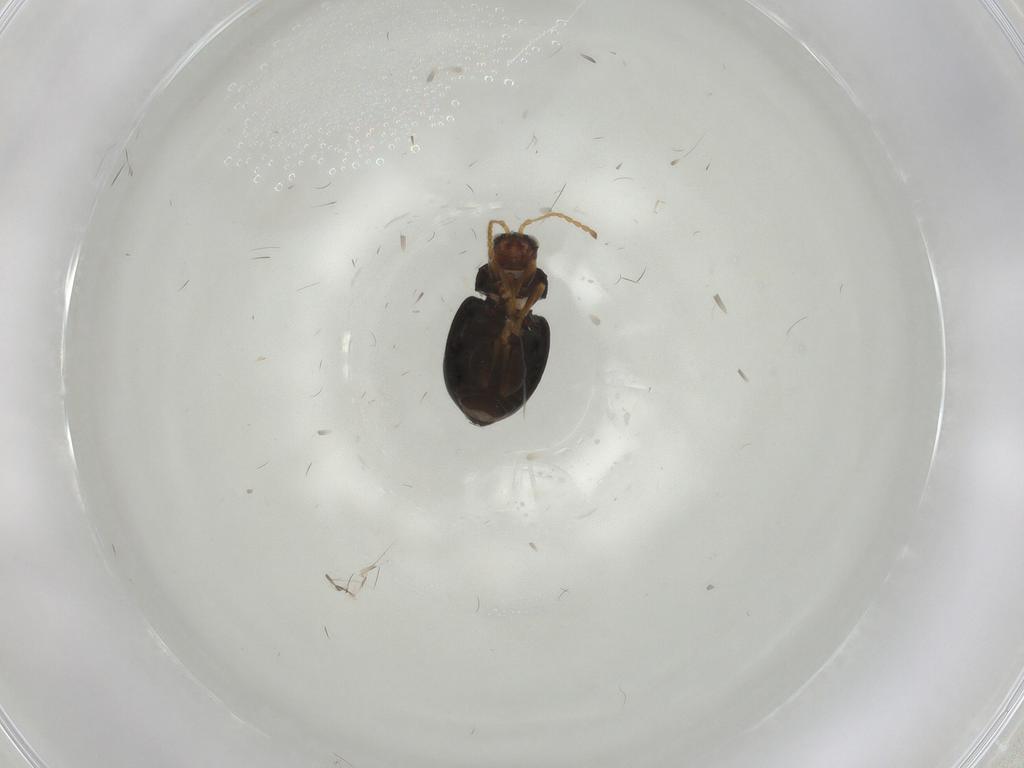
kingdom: Animalia
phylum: Arthropoda
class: Insecta
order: Coleoptera
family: Chrysomelidae
